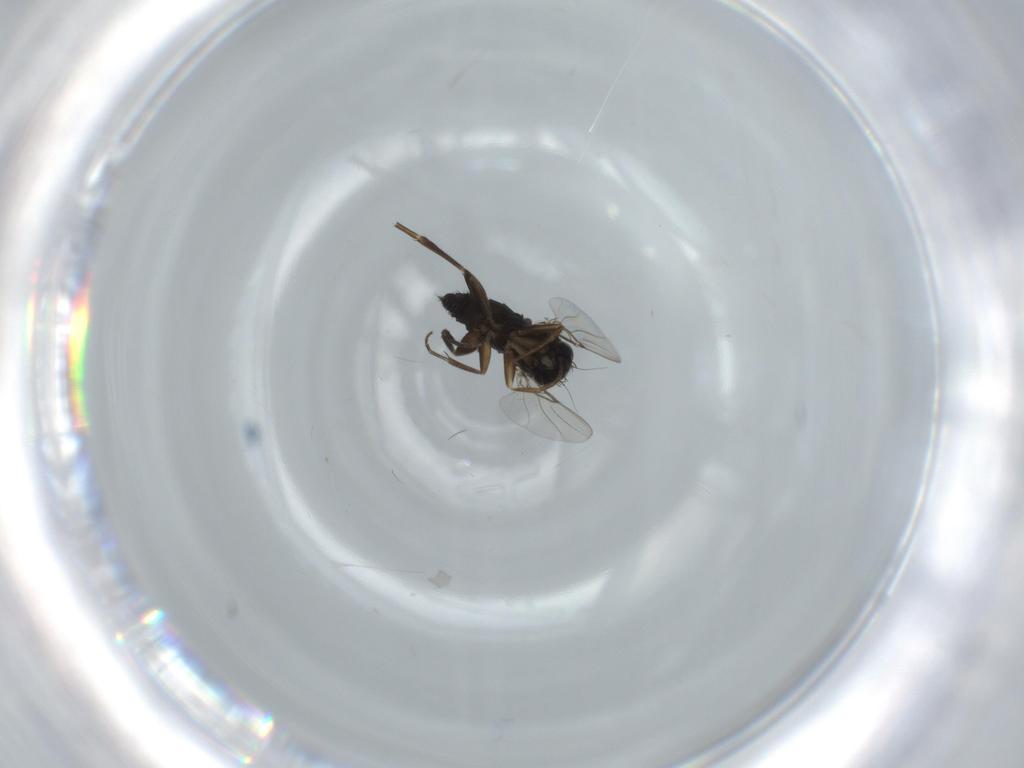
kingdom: Animalia
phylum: Arthropoda
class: Insecta
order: Diptera
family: Phoridae
